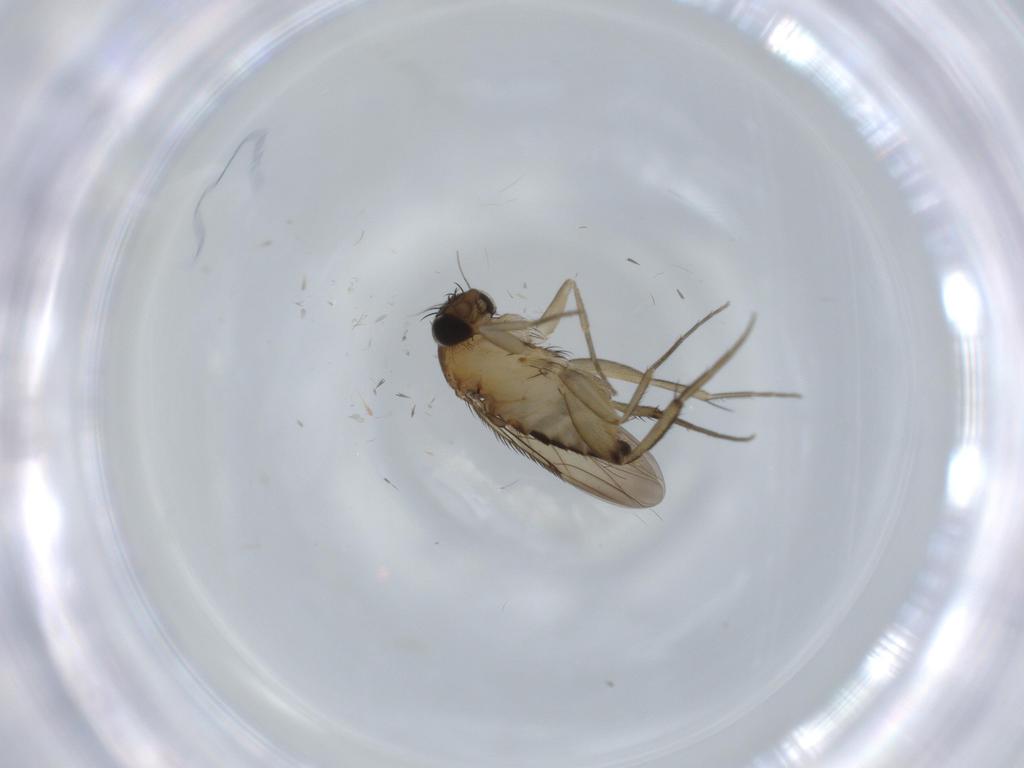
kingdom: Animalia
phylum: Arthropoda
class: Insecta
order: Diptera
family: Phoridae
